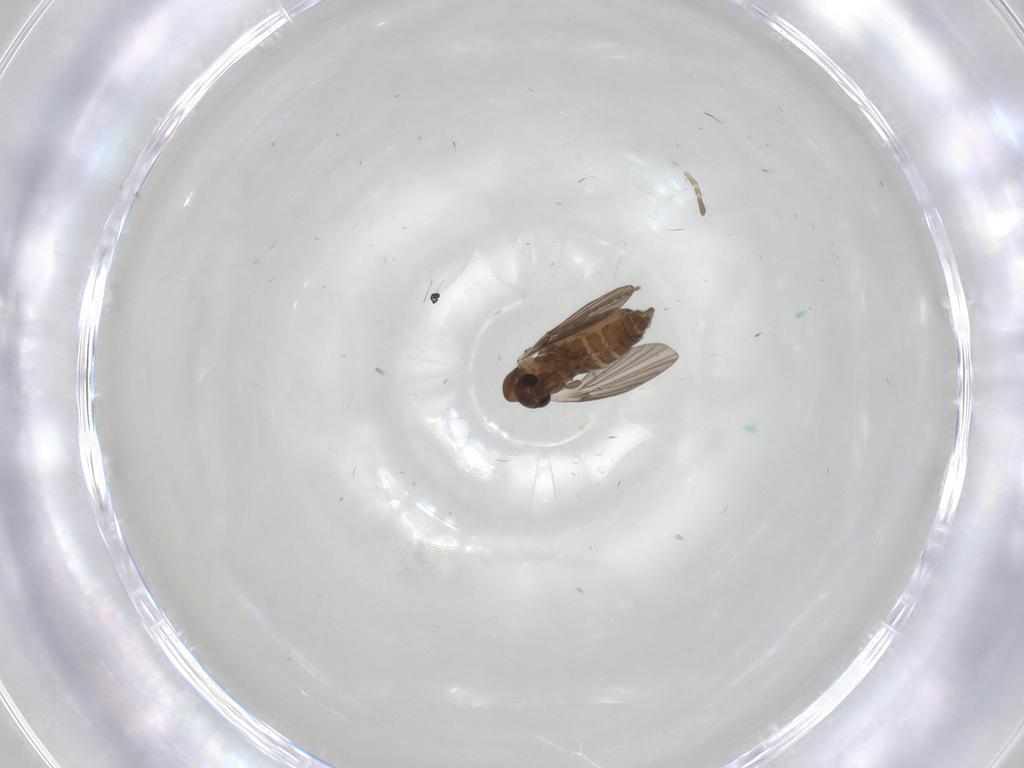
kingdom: Animalia
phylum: Arthropoda
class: Insecta
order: Diptera
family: Muscidae
